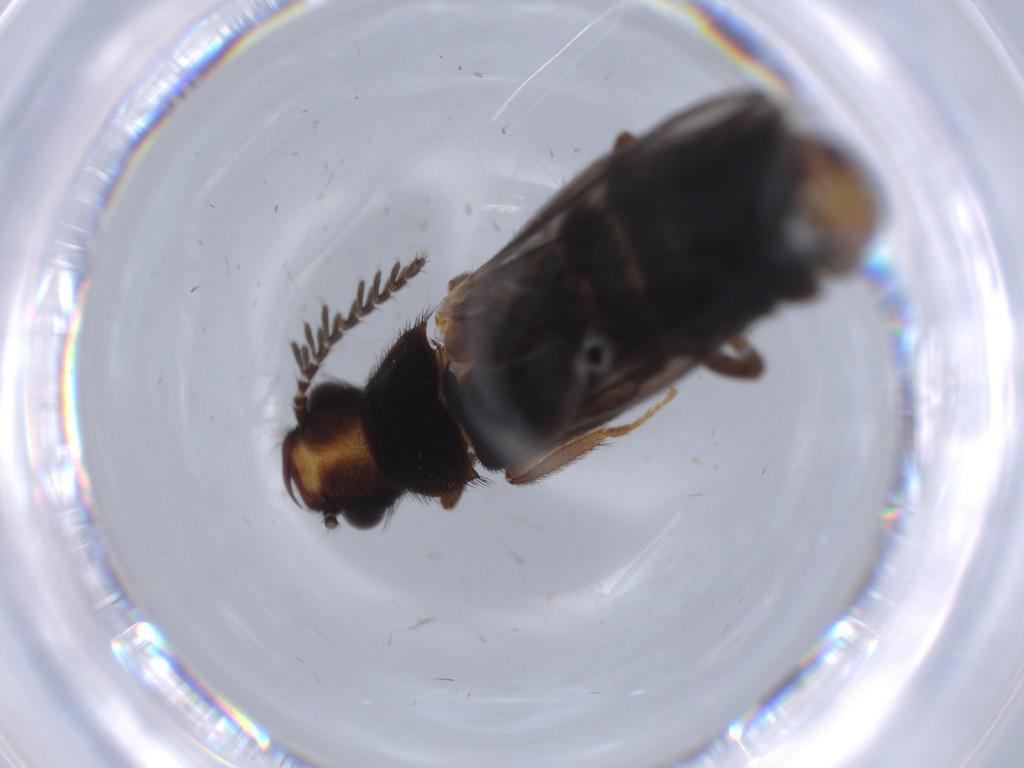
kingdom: Animalia
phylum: Arthropoda
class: Insecta
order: Coleoptera
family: Phengodidae
